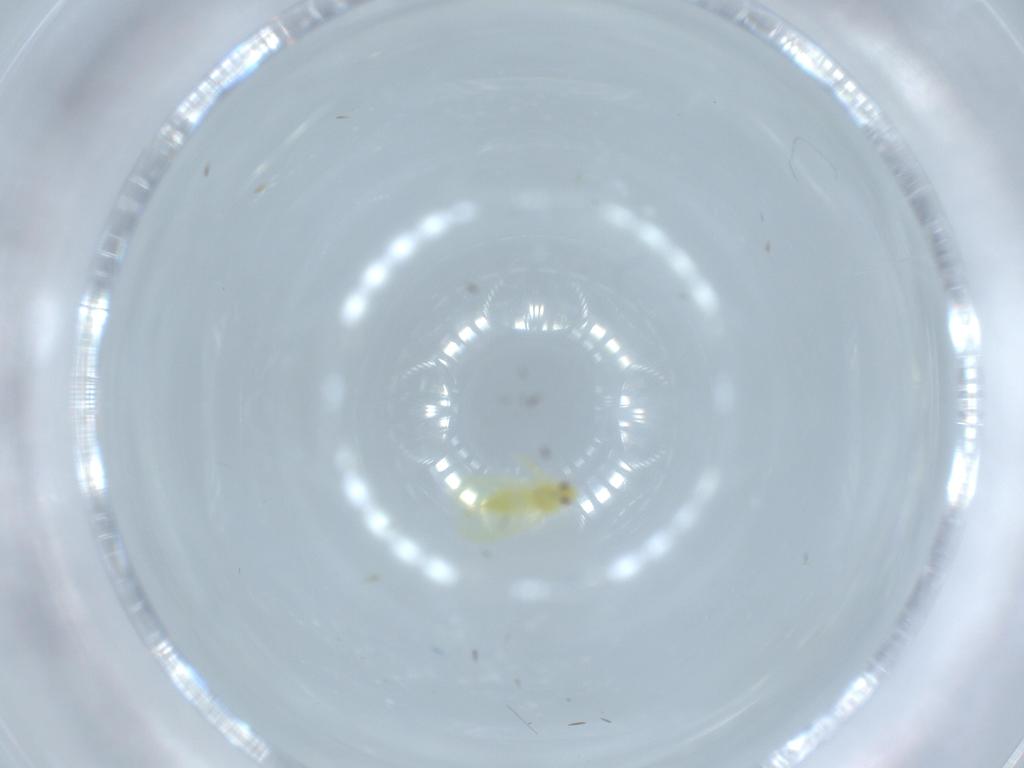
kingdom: Animalia
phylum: Arthropoda
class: Insecta
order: Hemiptera
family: Aleyrodidae
